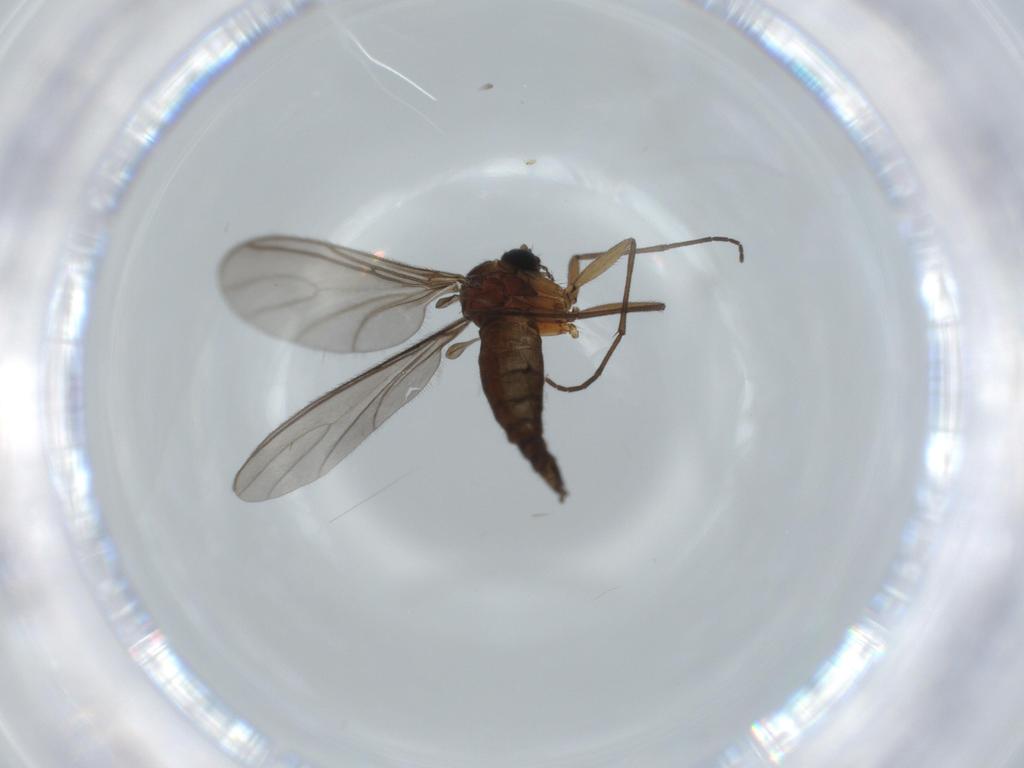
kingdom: Animalia
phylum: Arthropoda
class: Insecta
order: Diptera
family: Sciaridae
